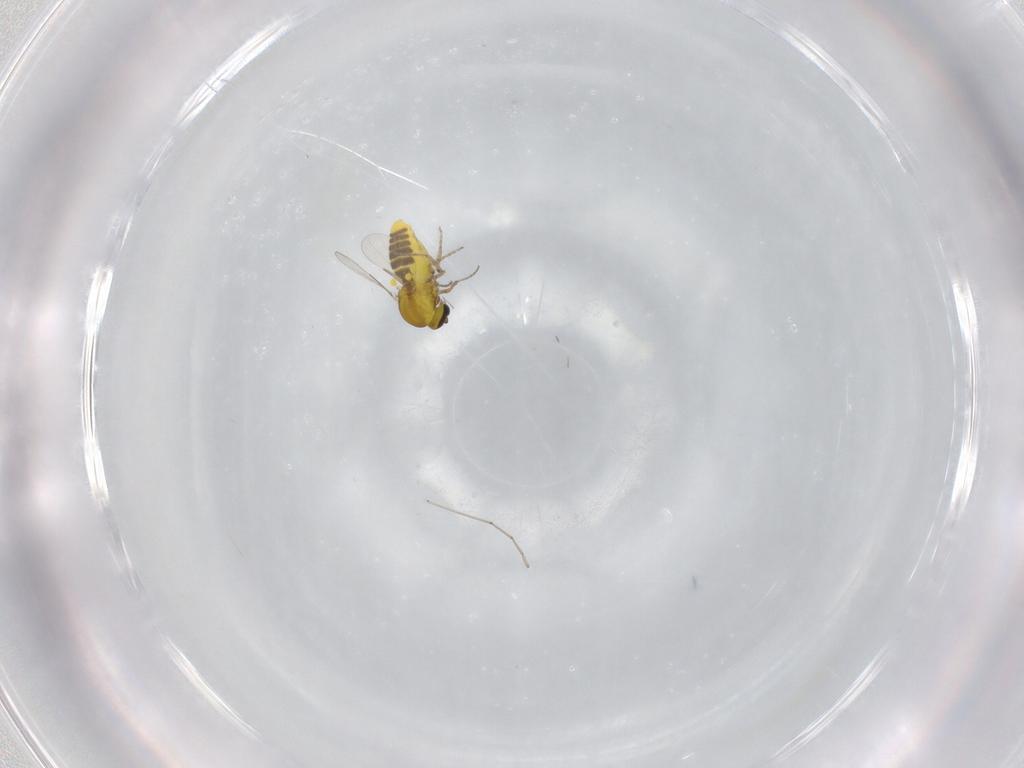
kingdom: Animalia
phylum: Arthropoda
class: Insecta
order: Diptera
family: Ceratopogonidae
